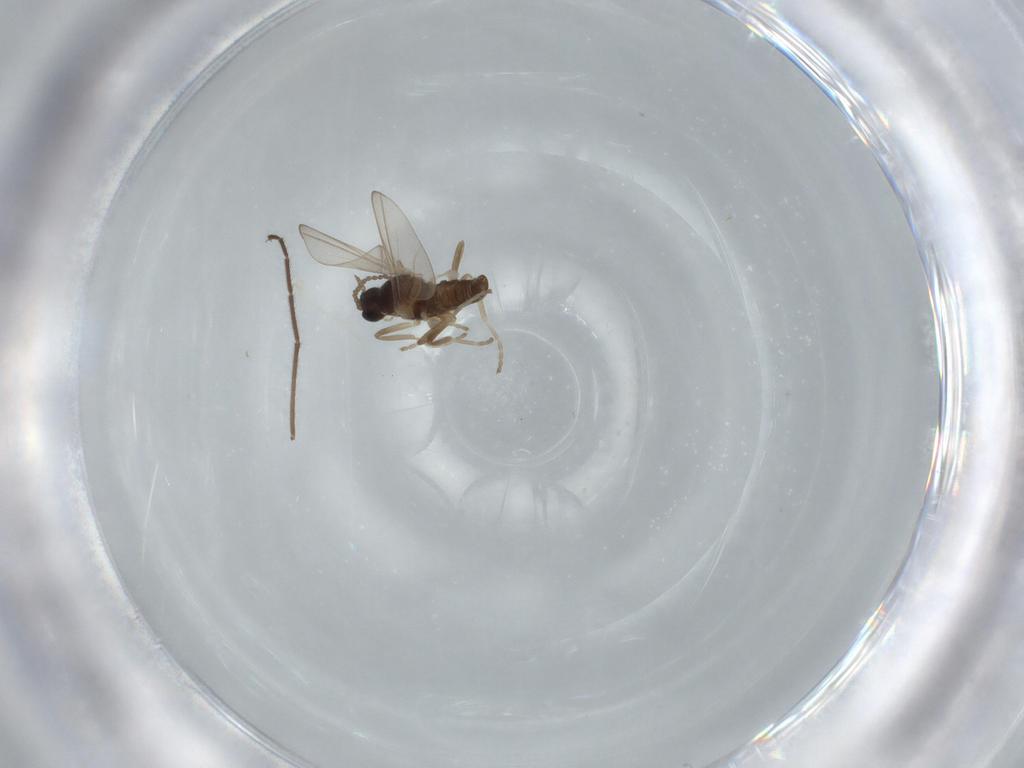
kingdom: Animalia
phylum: Arthropoda
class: Insecta
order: Diptera
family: Cecidomyiidae
